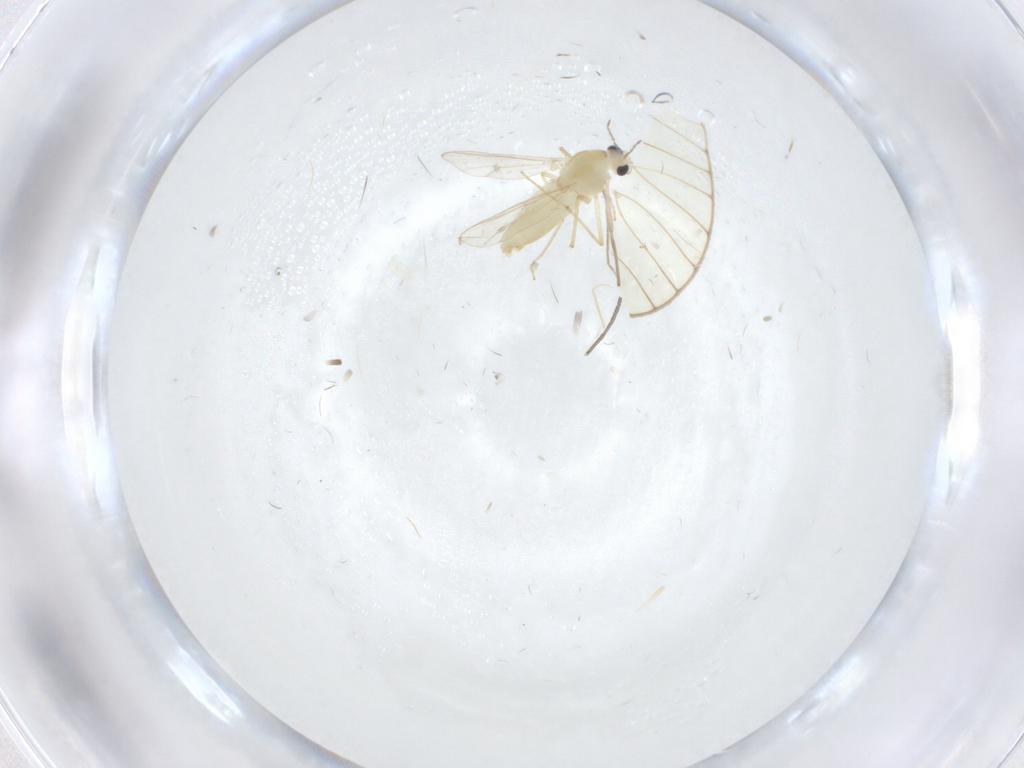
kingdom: Animalia
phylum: Arthropoda
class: Insecta
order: Diptera
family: Chironomidae
